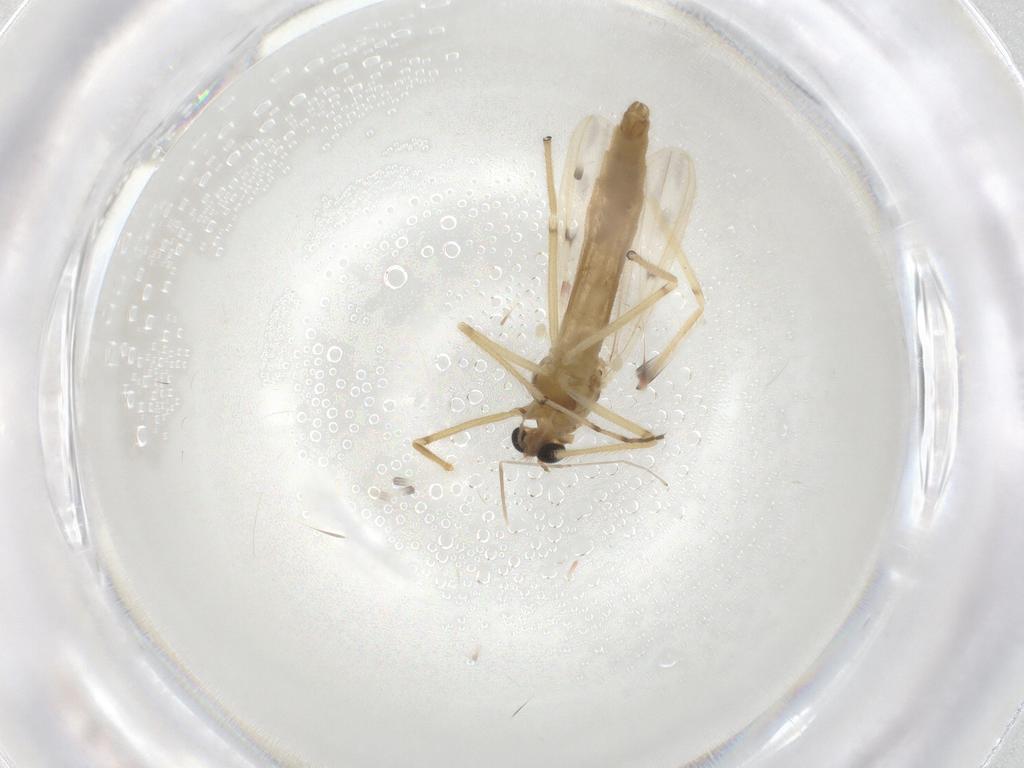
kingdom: Animalia
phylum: Arthropoda
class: Insecta
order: Diptera
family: Chironomidae
